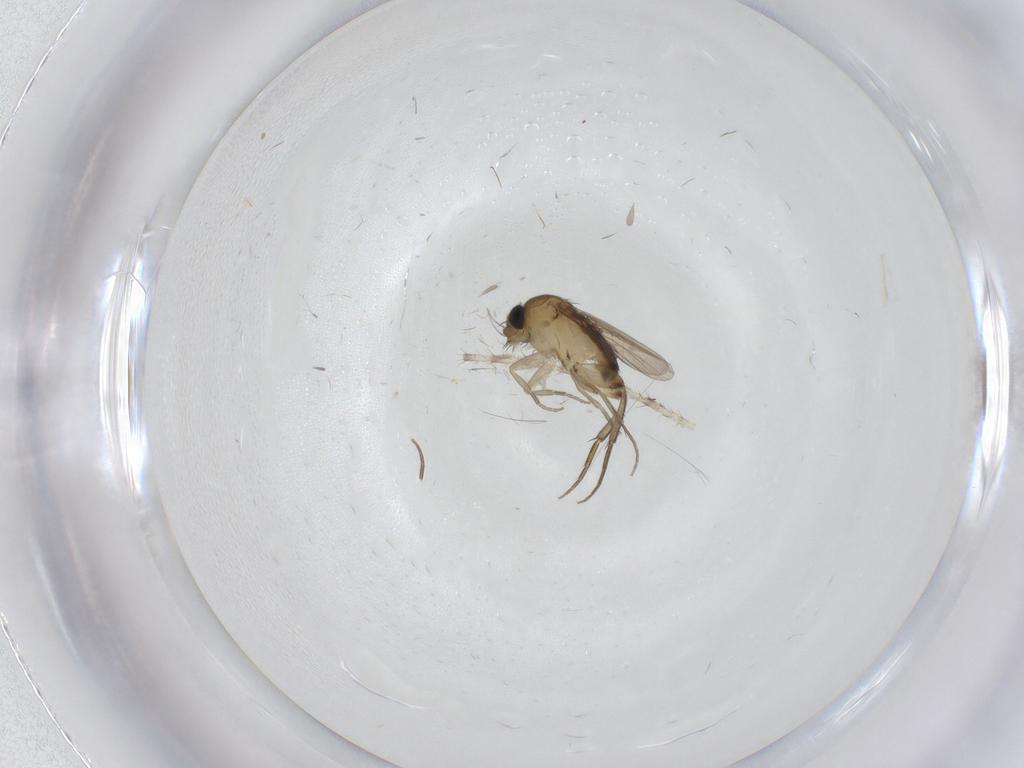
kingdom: Animalia
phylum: Arthropoda
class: Insecta
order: Diptera
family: Phoridae
